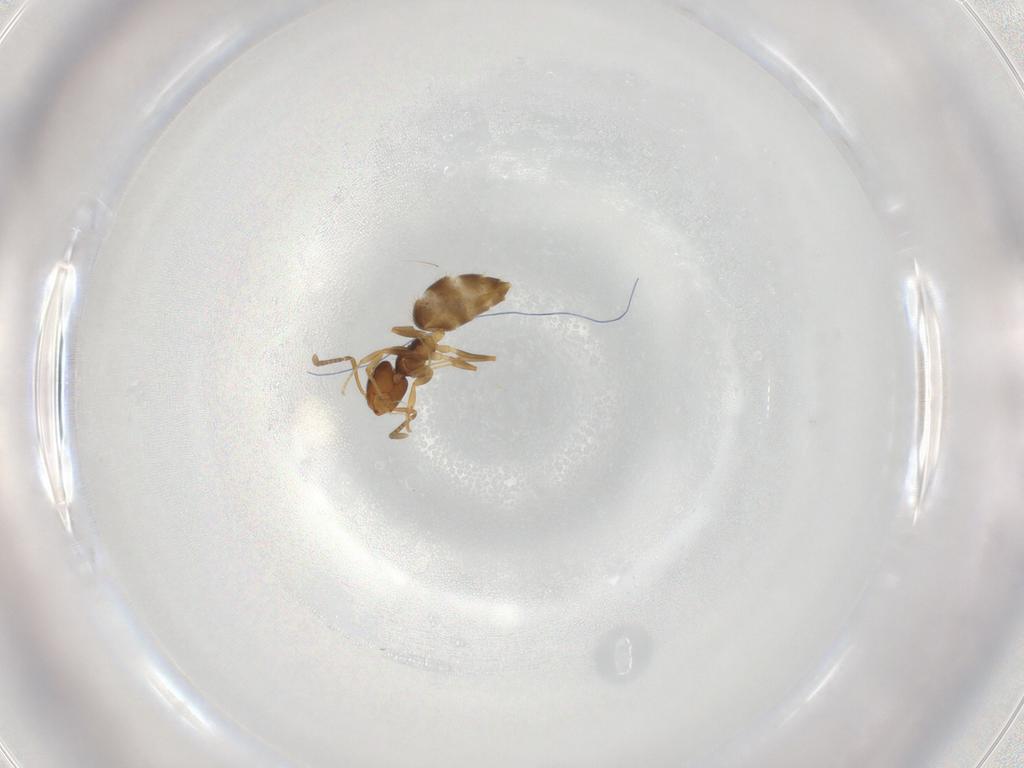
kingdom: Animalia
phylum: Arthropoda
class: Insecta
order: Hymenoptera
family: Formicidae
